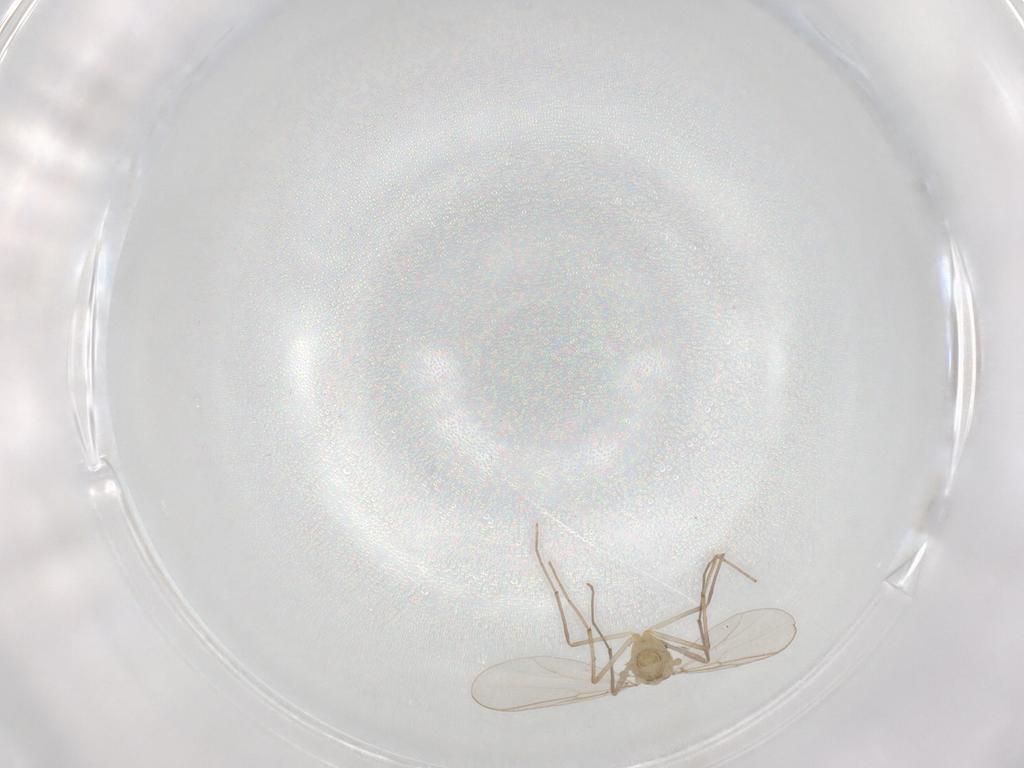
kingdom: Animalia
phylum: Arthropoda
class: Insecta
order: Diptera
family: Chironomidae
